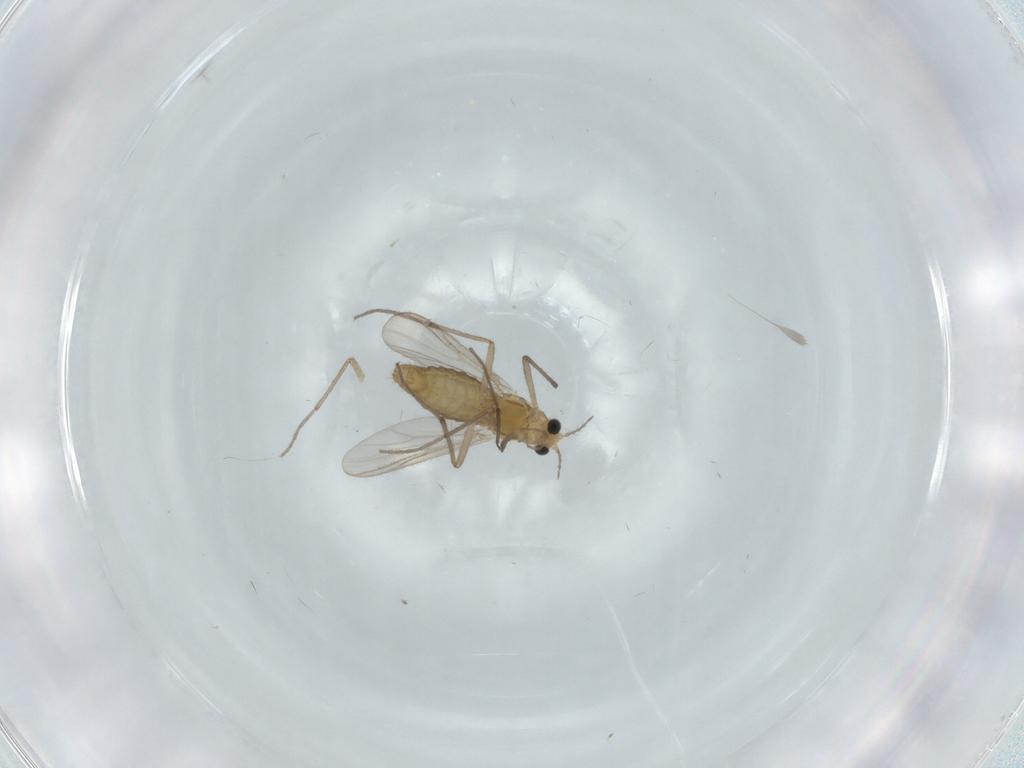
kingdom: Animalia
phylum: Arthropoda
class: Insecta
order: Diptera
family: Chironomidae
